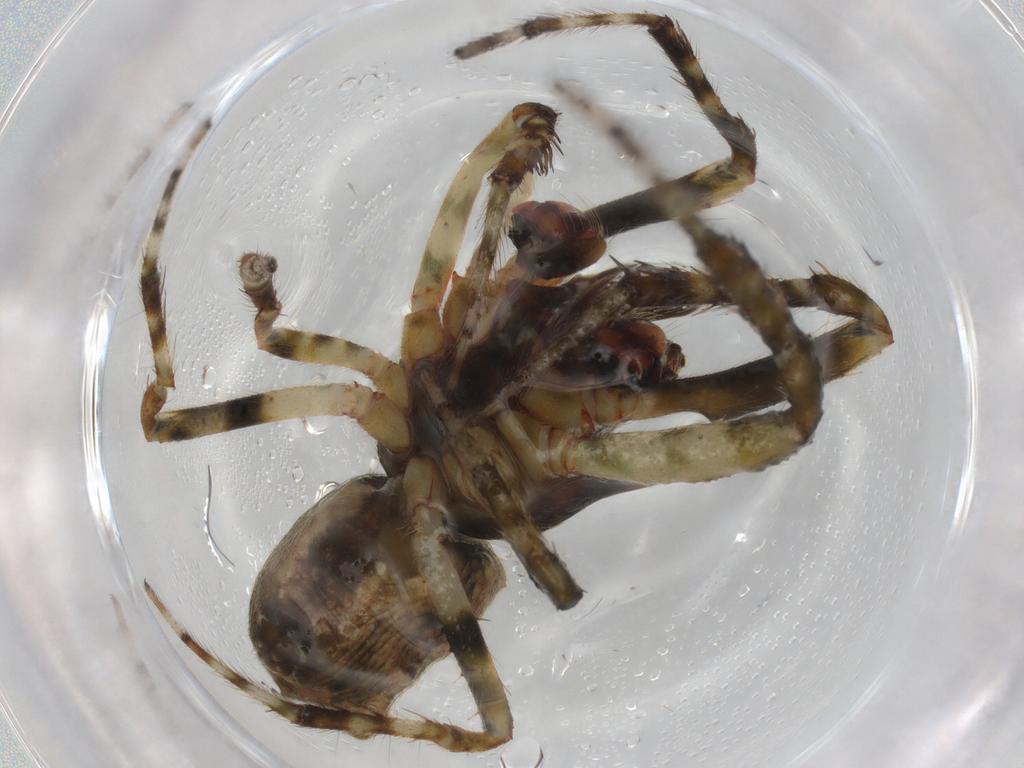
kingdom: Animalia
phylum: Arthropoda
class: Arachnida
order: Araneae
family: Araneidae
